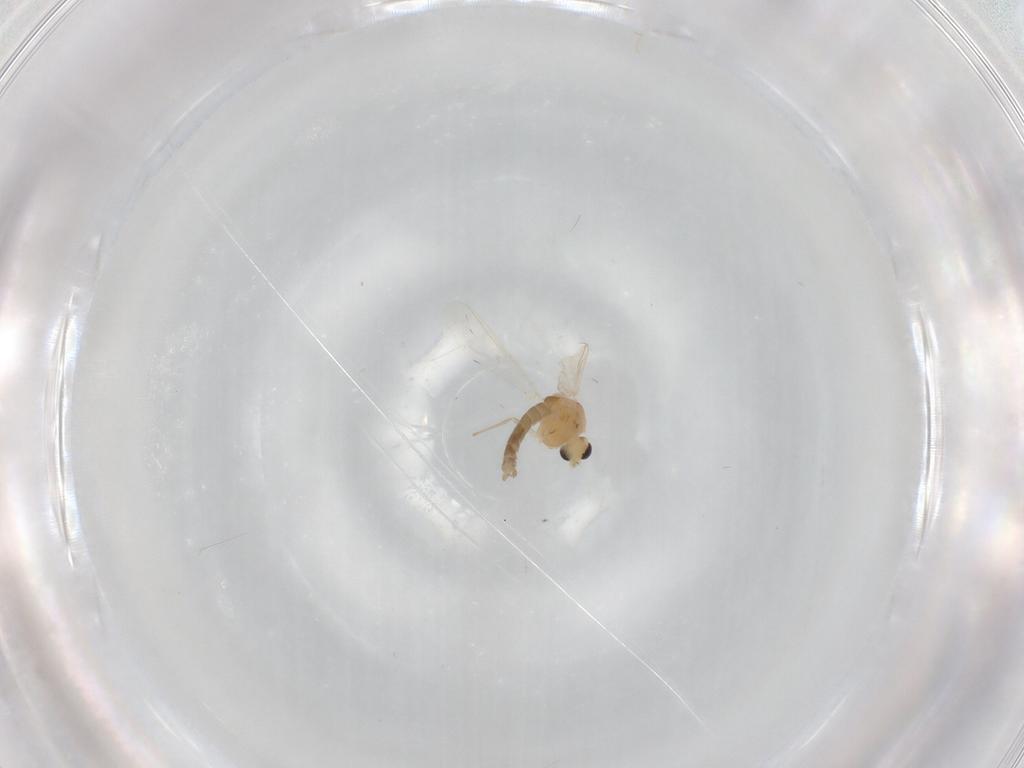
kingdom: Animalia
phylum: Arthropoda
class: Insecta
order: Diptera
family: Chironomidae
